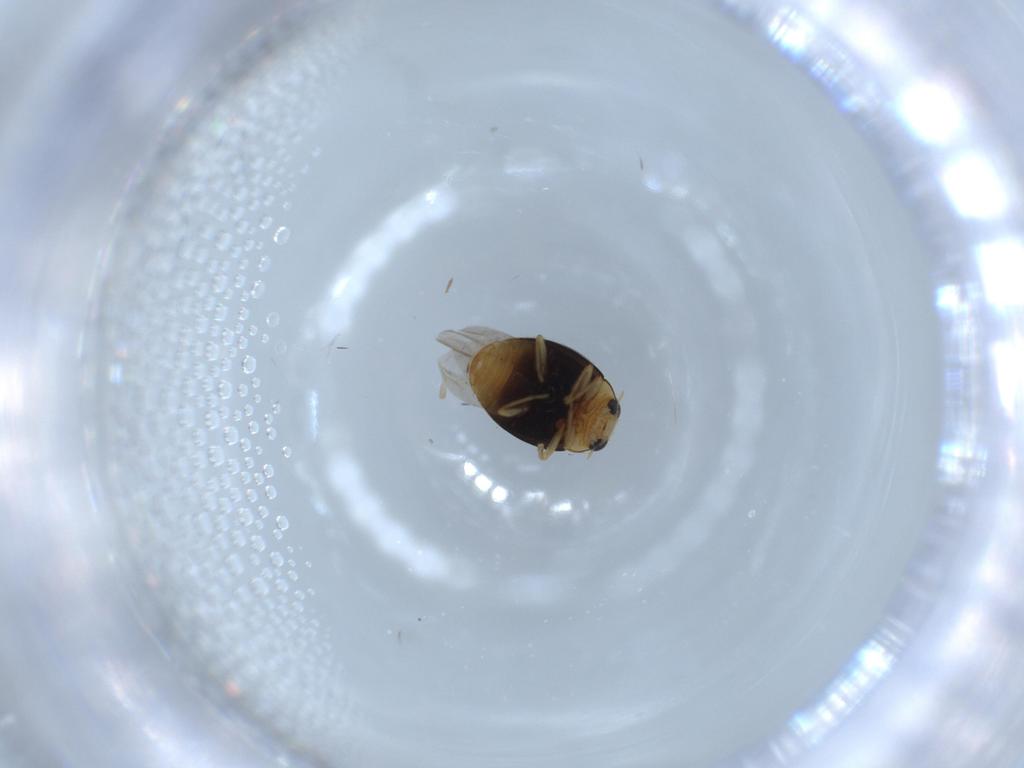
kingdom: Animalia
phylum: Arthropoda
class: Insecta
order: Coleoptera
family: Coccinellidae
